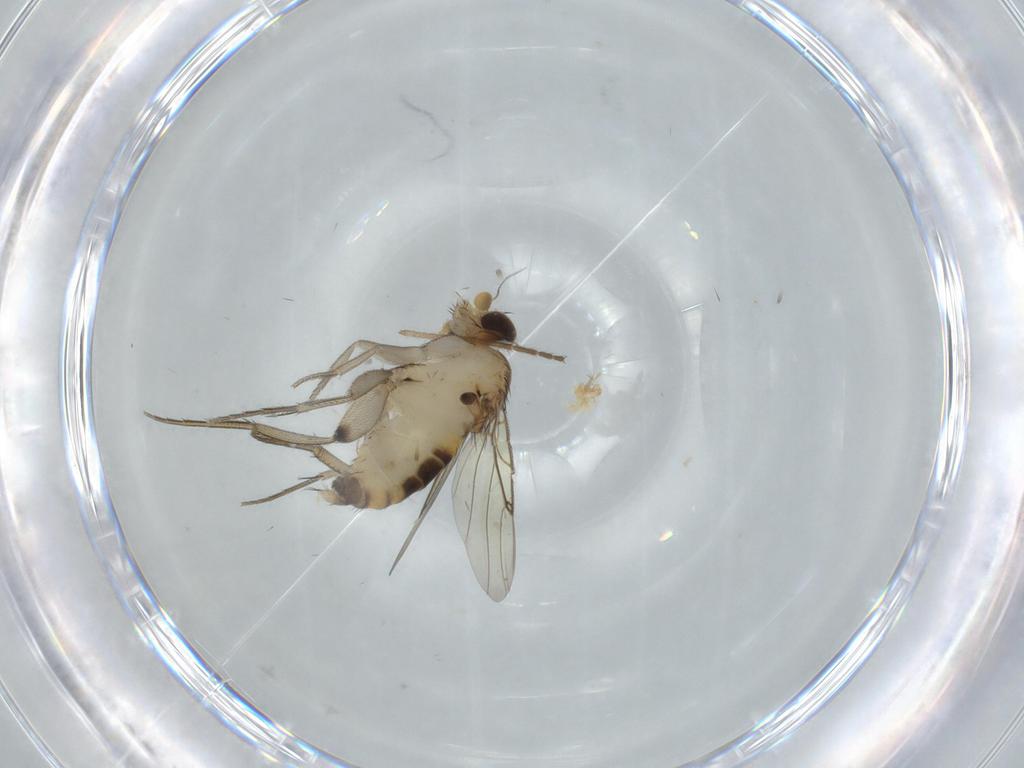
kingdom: Animalia
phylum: Arthropoda
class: Insecta
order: Diptera
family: Phoridae
